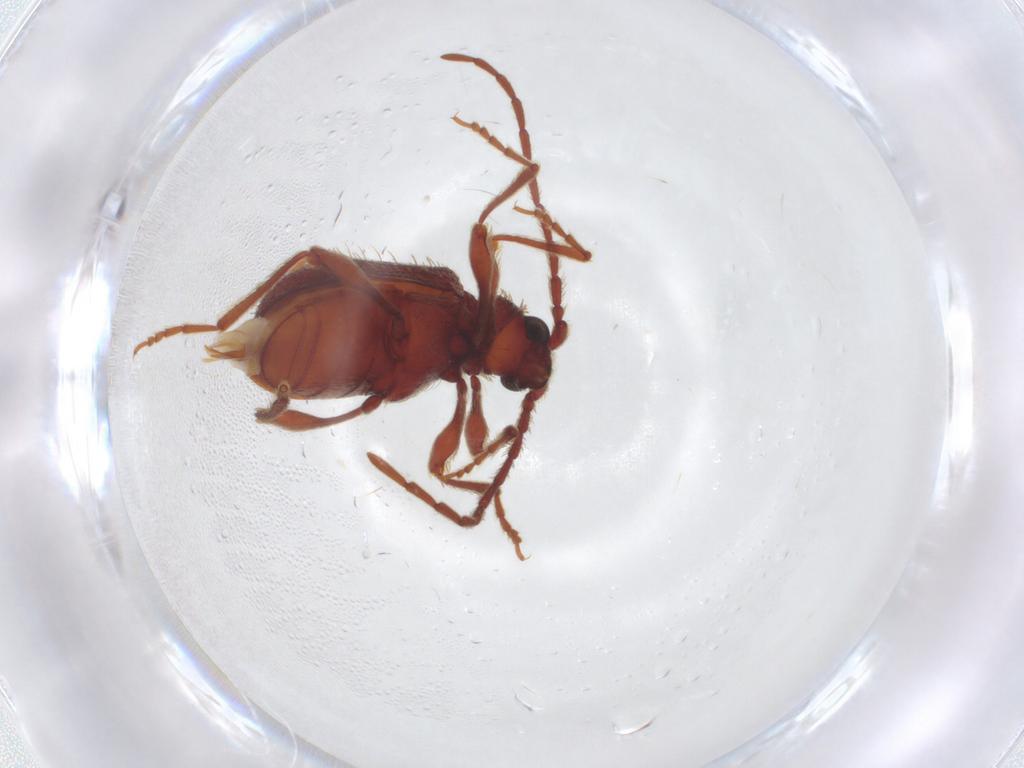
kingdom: Animalia
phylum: Arthropoda
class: Insecta
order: Coleoptera
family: Ptinidae
